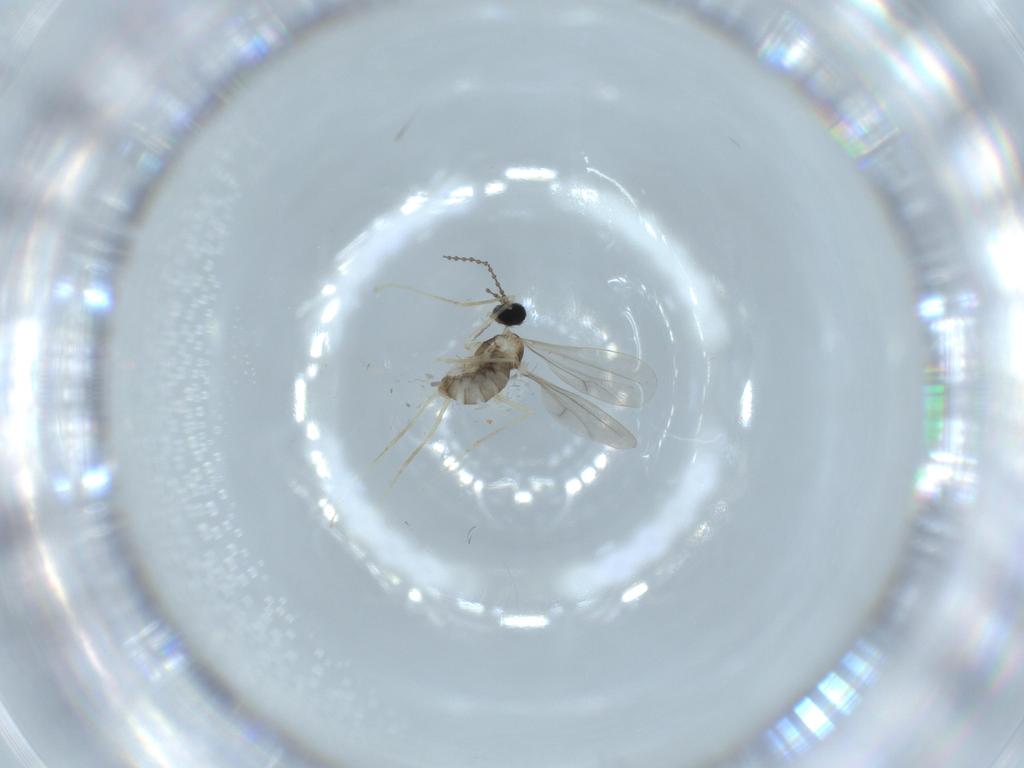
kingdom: Animalia
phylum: Arthropoda
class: Insecta
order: Diptera
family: Cecidomyiidae
